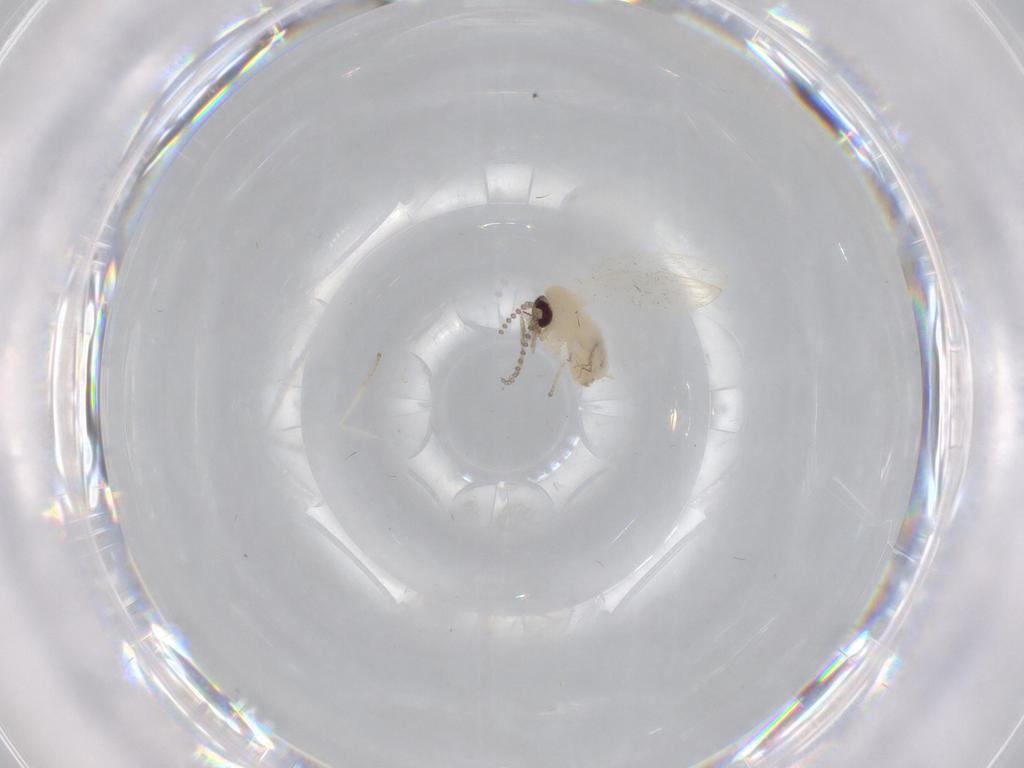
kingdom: Animalia
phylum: Arthropoda
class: Insecta
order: Diptera
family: Psychodidae
